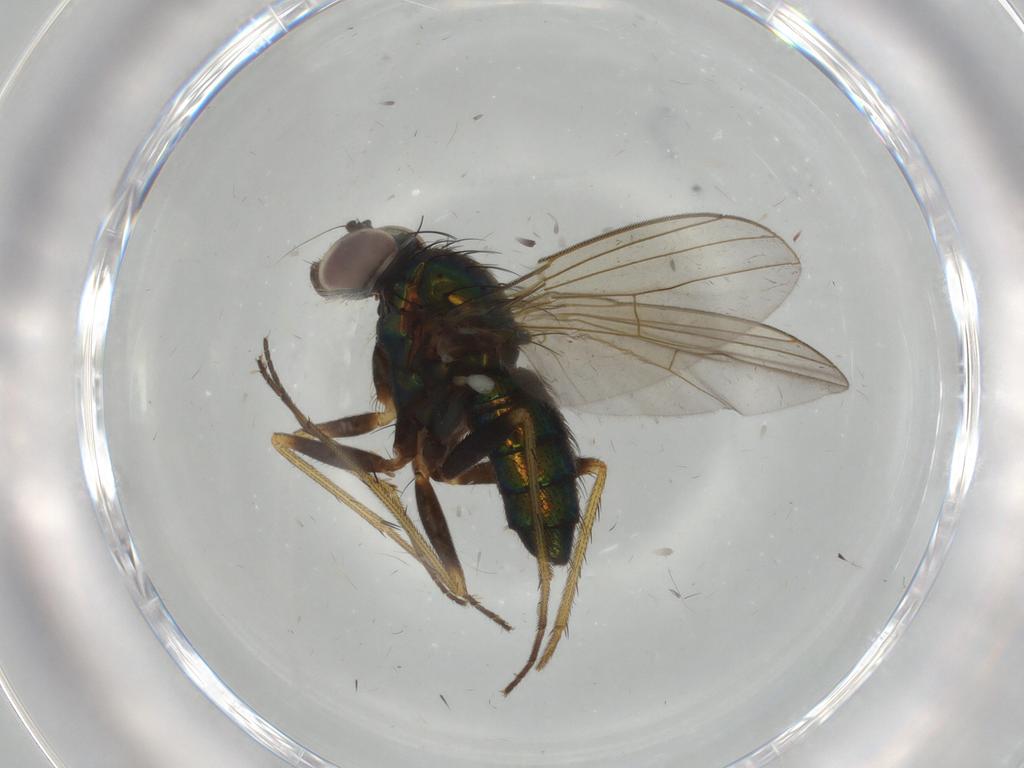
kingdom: Animalia
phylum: Arthropoda
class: Insecta
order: Diptera
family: Dolichopodidae
